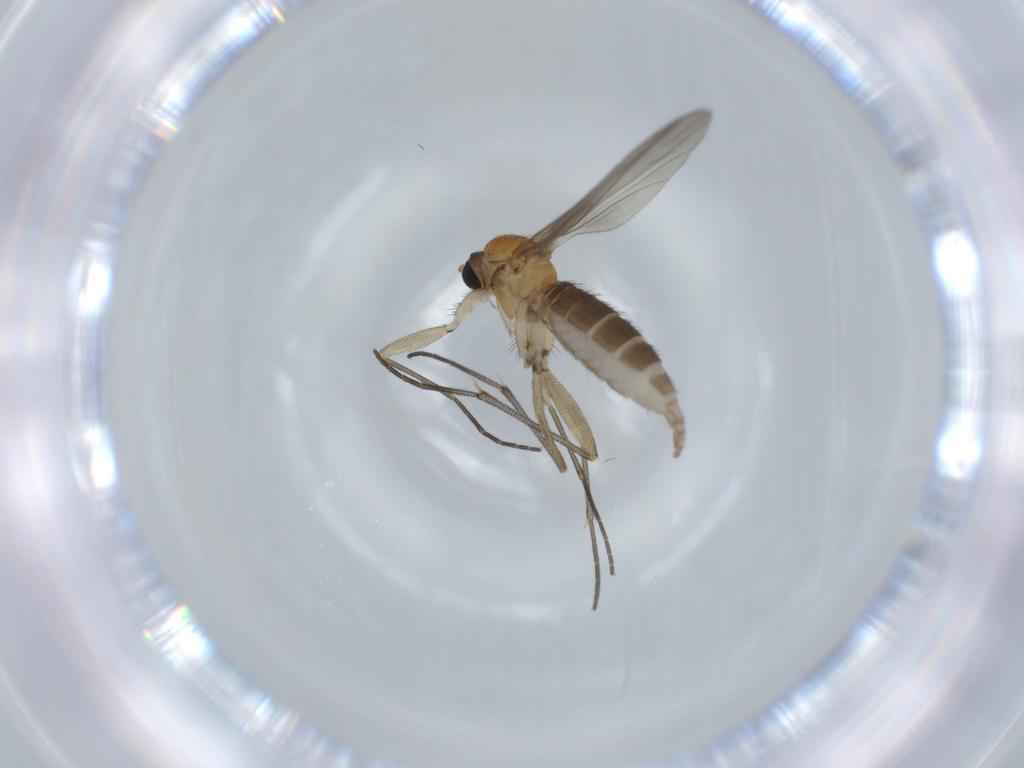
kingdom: Animalia
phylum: Arthropoda
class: Insecta
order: Diptera
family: Sciaridae
